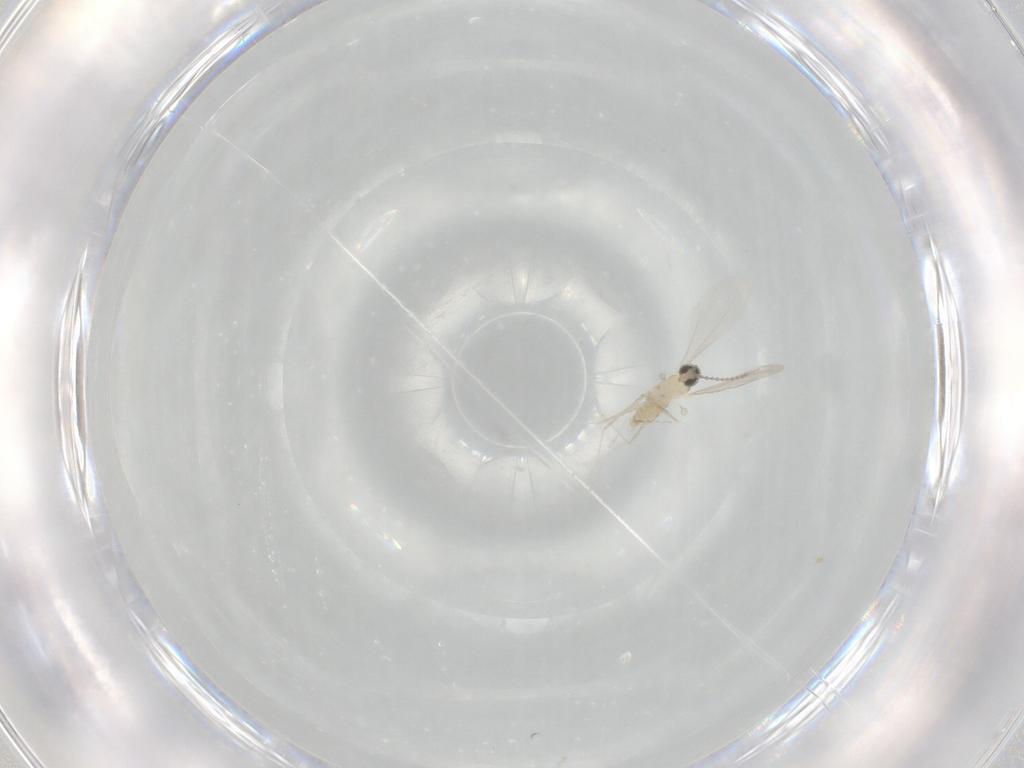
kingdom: Animalia
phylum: Arthropoda
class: Insecta
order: Diptera
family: Cecidomyiidae
